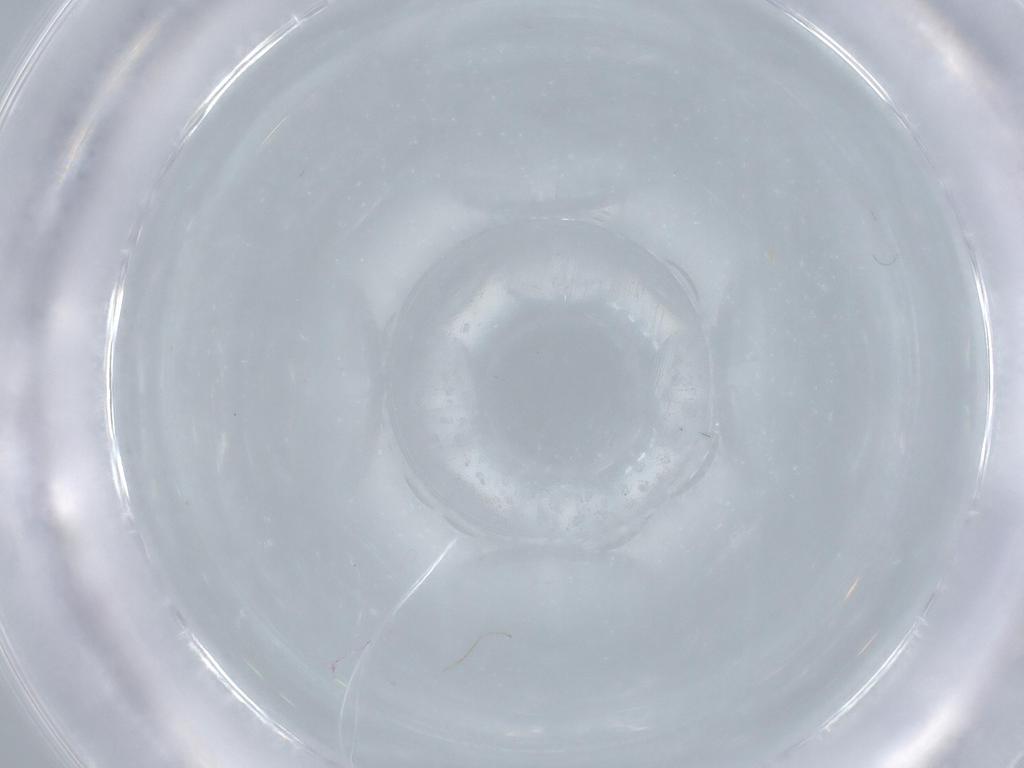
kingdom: Animalia
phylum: Arthropoda
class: Insecta
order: Diptera
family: Cecidomyiidae
